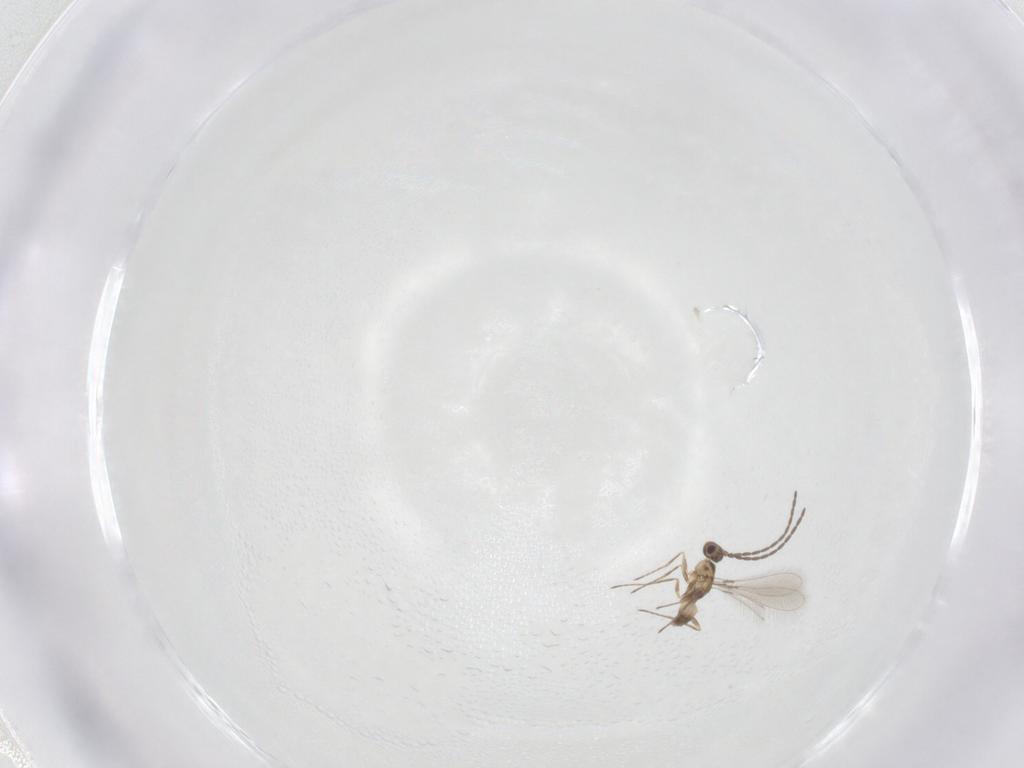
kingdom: Animalia
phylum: Arthropoda
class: Insecta
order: Hymenoptera
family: Mymaridae
